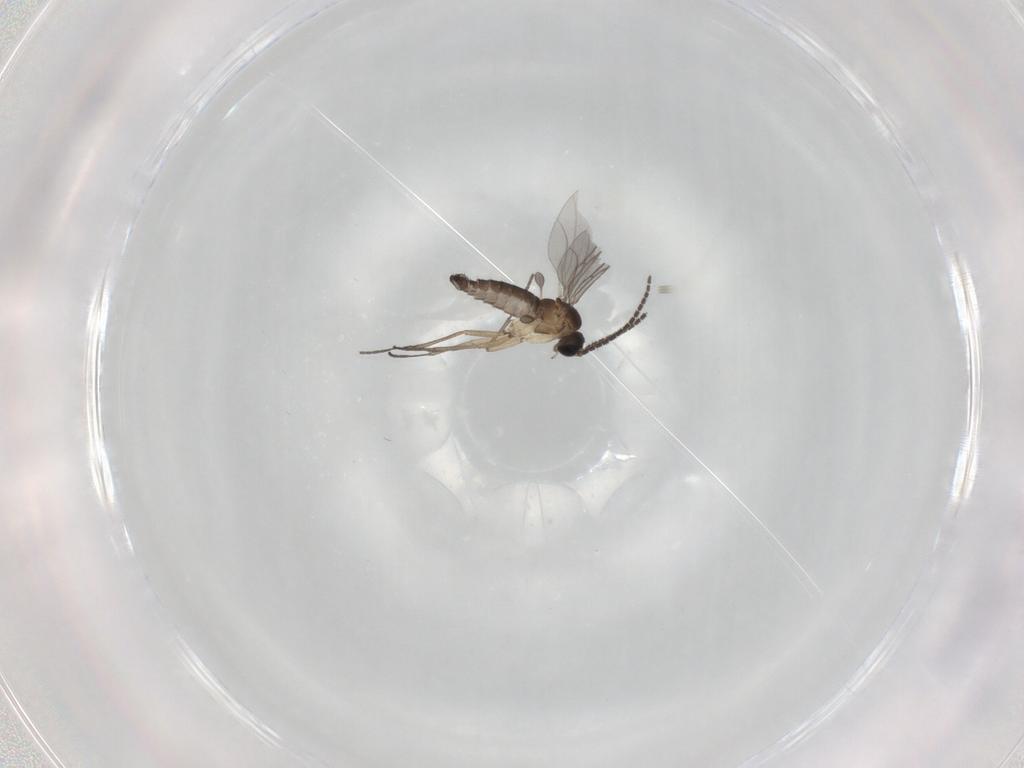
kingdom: Animalia
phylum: Arthropoda
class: Insecta
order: Diptera
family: Sciaridae
